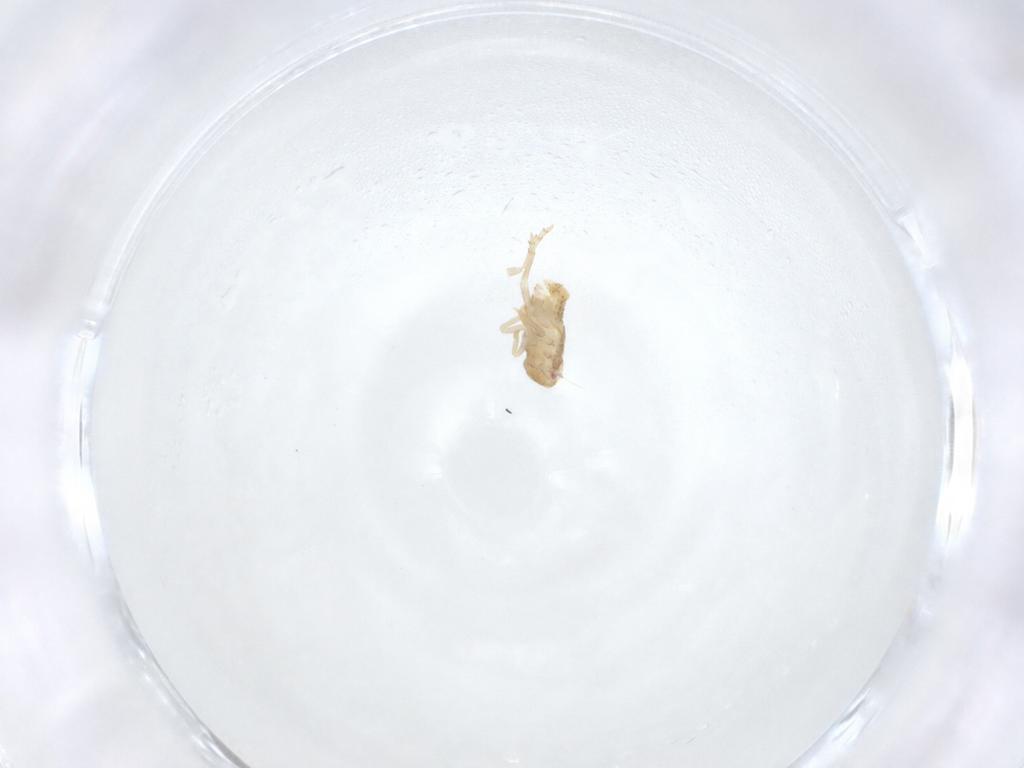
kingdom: Animalia
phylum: Arthropoda
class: Insecta
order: Hemiptera
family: Flatidae
